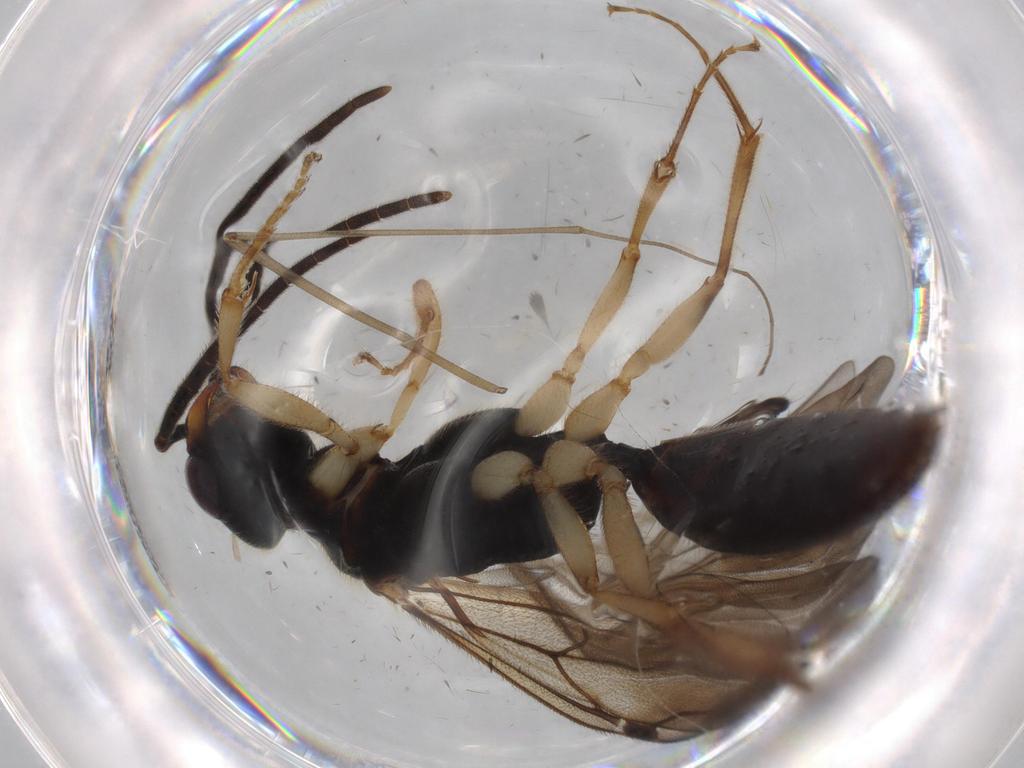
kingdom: Animalia
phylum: Arthropoda
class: Insecta
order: Hymenoptera
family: Bethylidae
